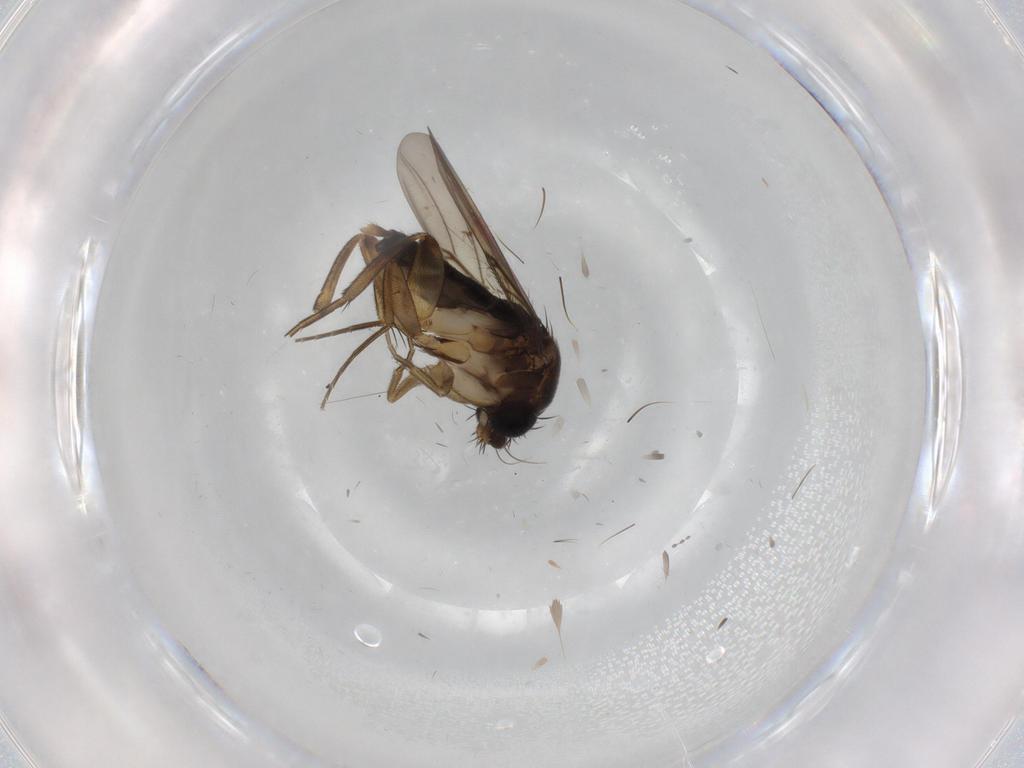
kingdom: Animalia
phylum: Arthropoda
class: Insecta
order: Diptera
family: Phoridae
